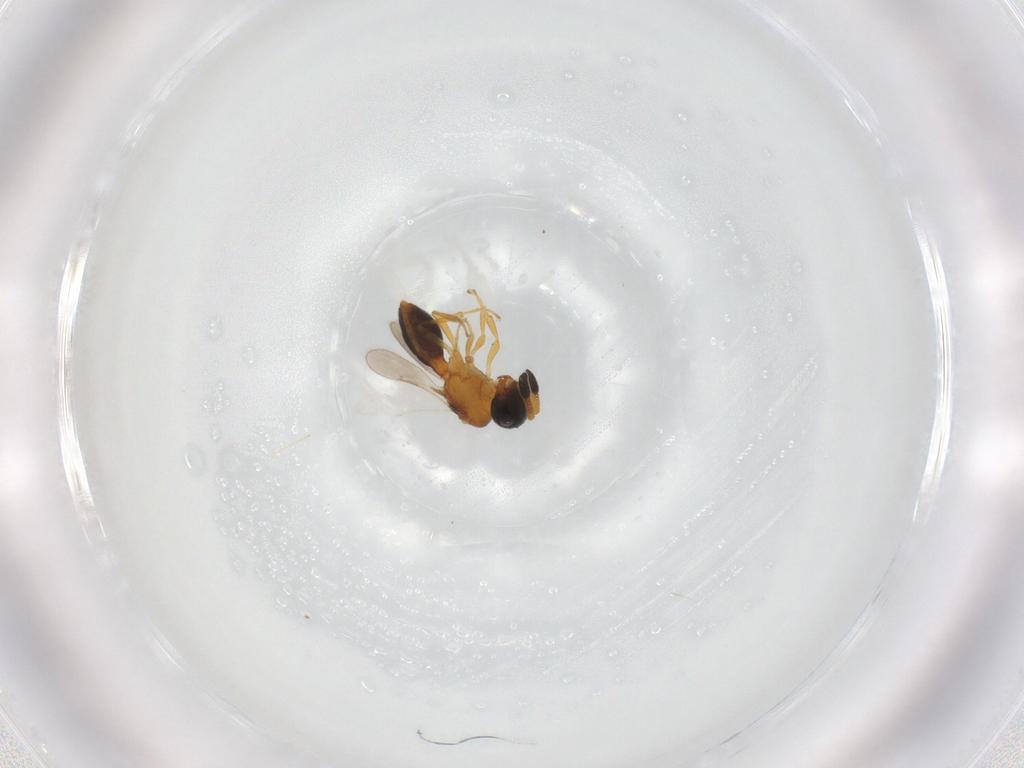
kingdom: Animalia
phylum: Arthropoda
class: Insecta
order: Hymenoptera
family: Scelionidae
